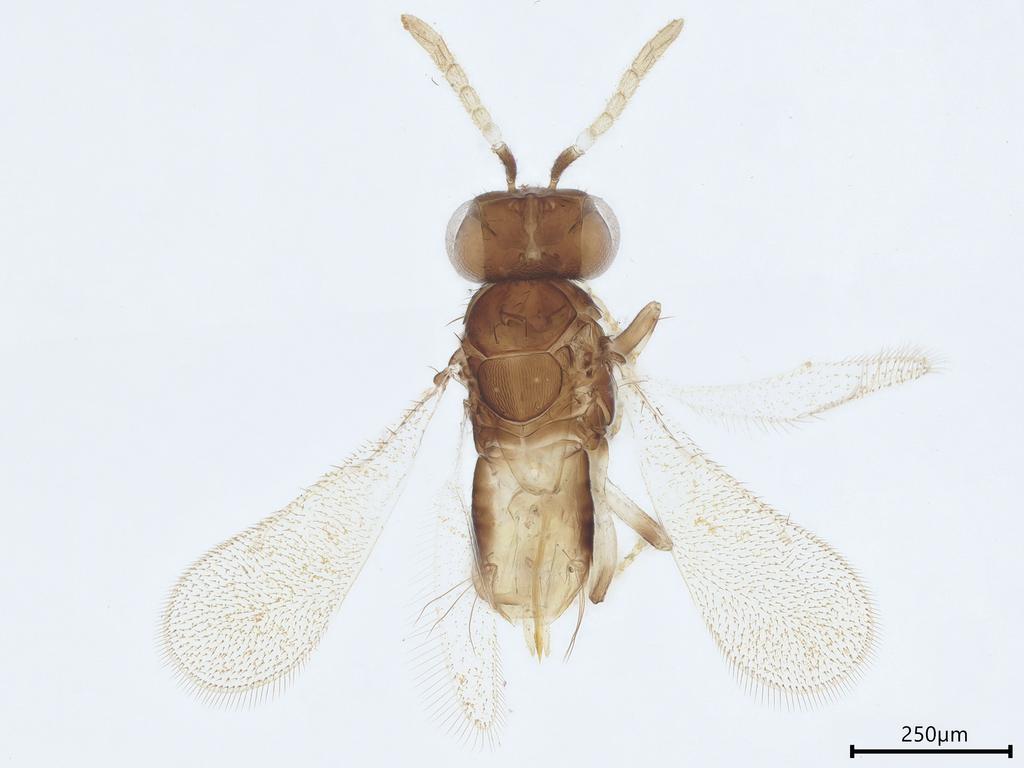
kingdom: Animalia
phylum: Arthropoda
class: Insecta
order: Hymenoptera
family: Aphelinidae
